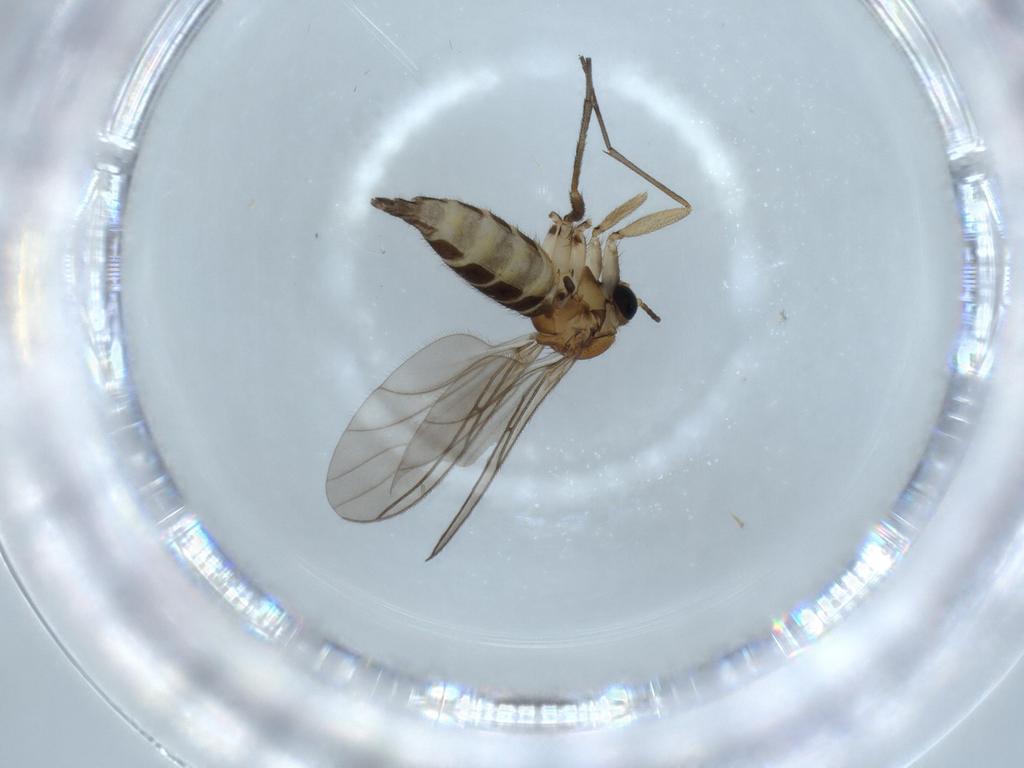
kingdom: Animalia
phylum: Arthropoda
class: Insecta
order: Diptera
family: Sciaridae
